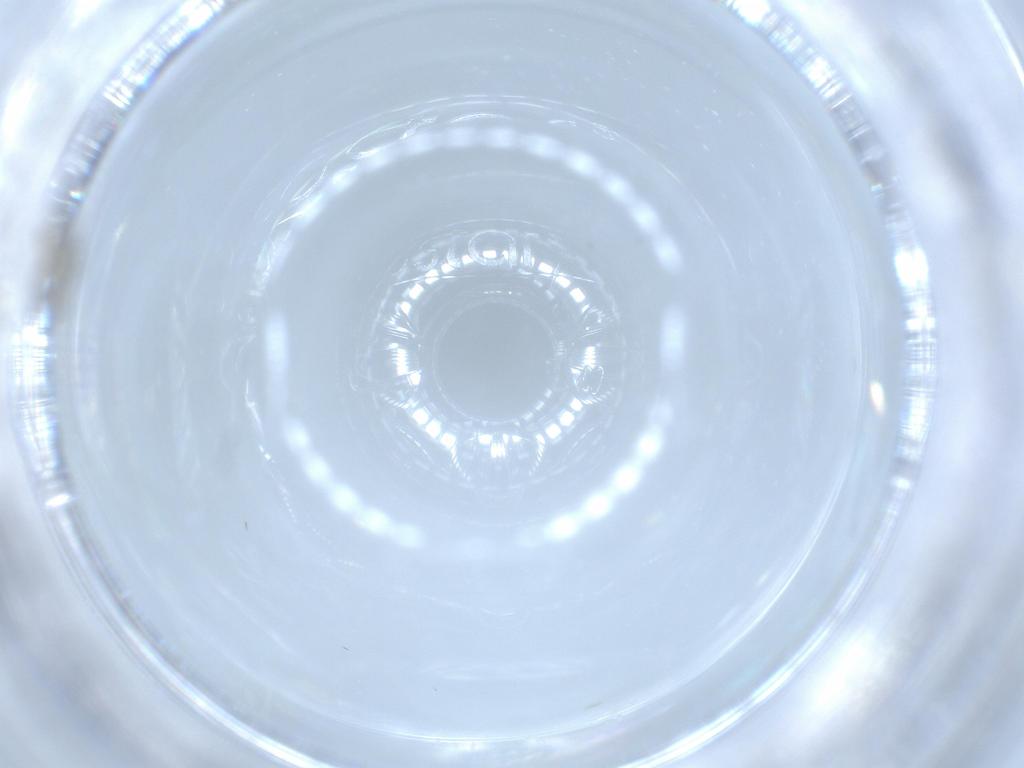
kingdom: Animalia
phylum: Arthropoda
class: Insecta
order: Diptera
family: Cecidomyiidae
